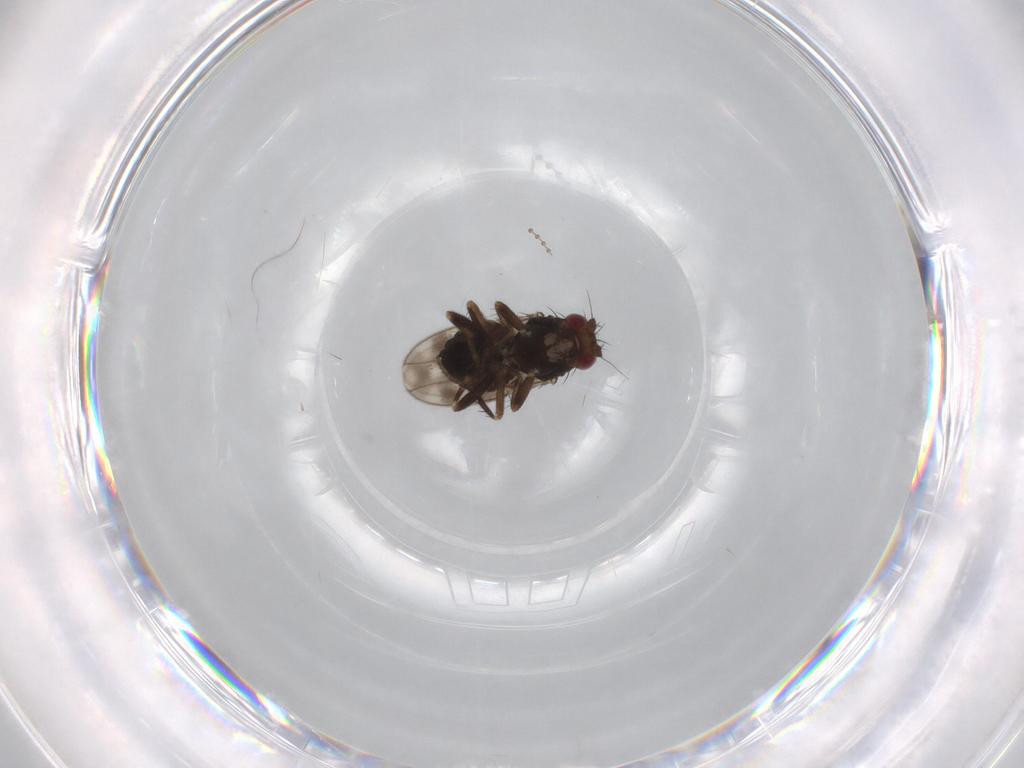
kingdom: Animalia
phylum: Arthropoda
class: Insecta
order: Diptera
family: Sphaeroceridae
